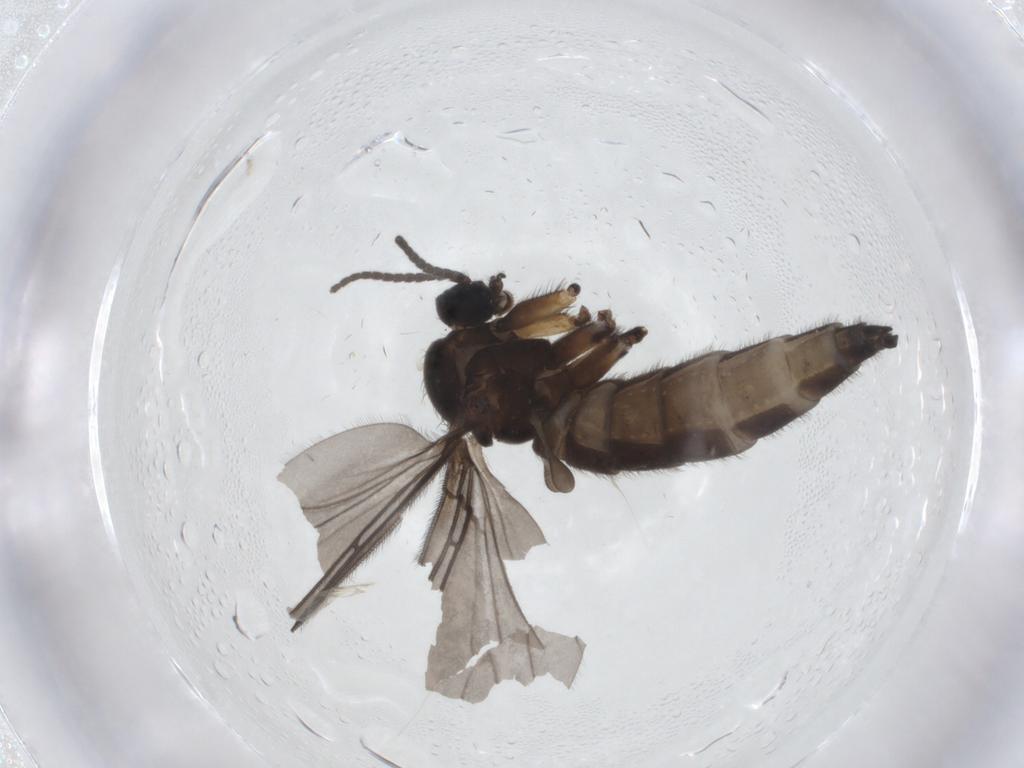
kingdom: Animalia
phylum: Arthropoda
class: Insecta
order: Diptera
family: Sciaridae
